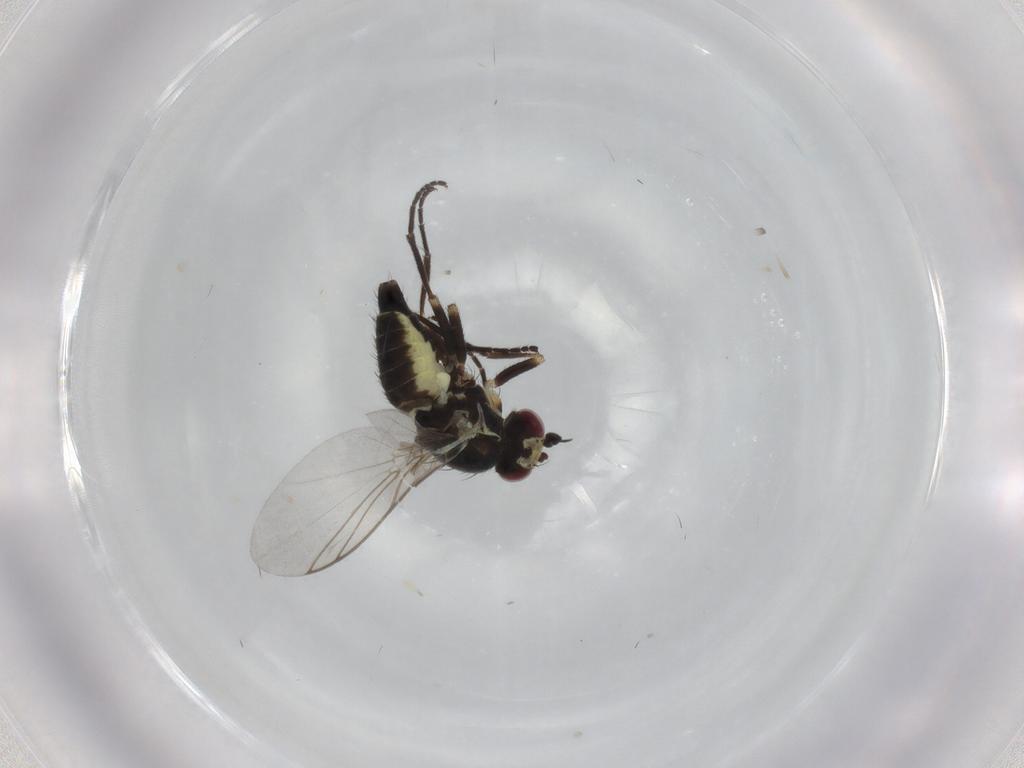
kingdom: Animalia
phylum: Arthropoda
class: Insecta
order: Diptera
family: Agromyzidae
